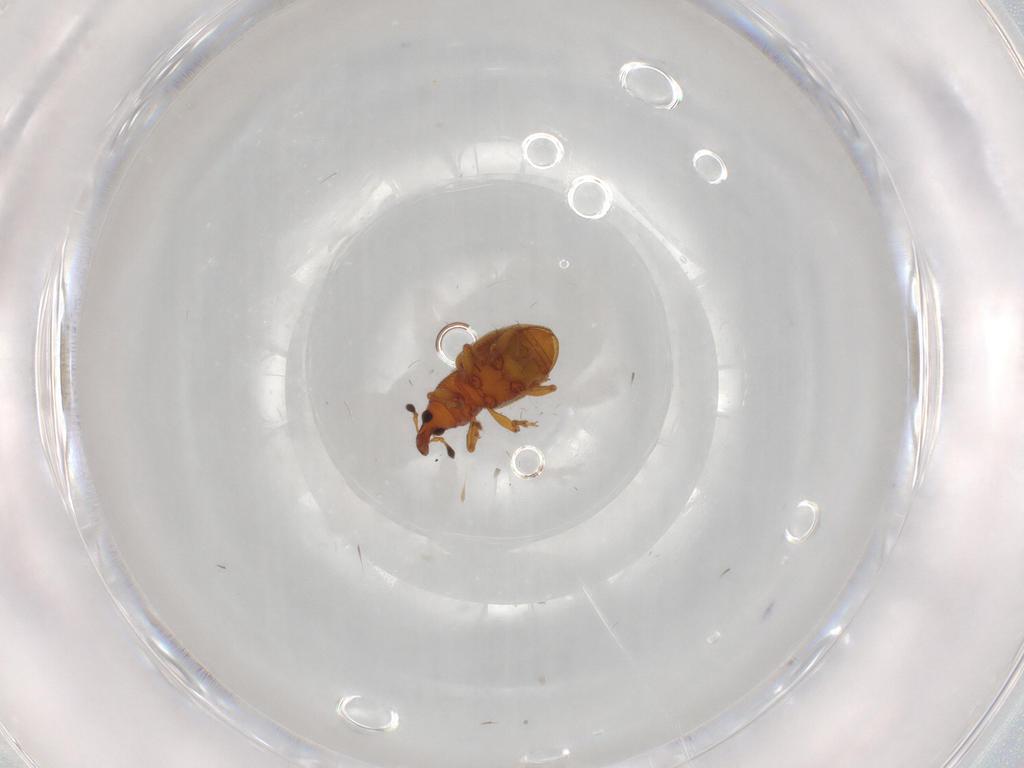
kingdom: Animalia
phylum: Arthropoda
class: Insecta
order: Coleoptera
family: Curculionidae
